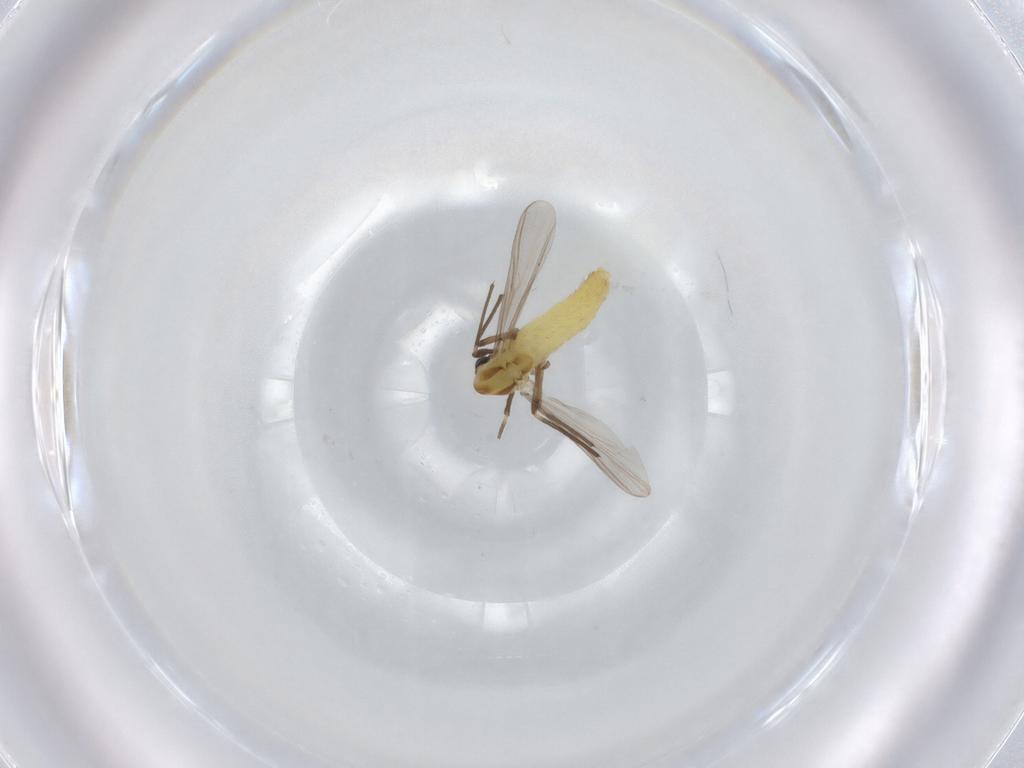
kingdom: Animalia
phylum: Arthropoda
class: Insecta
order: Diptera
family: Chironomidae
